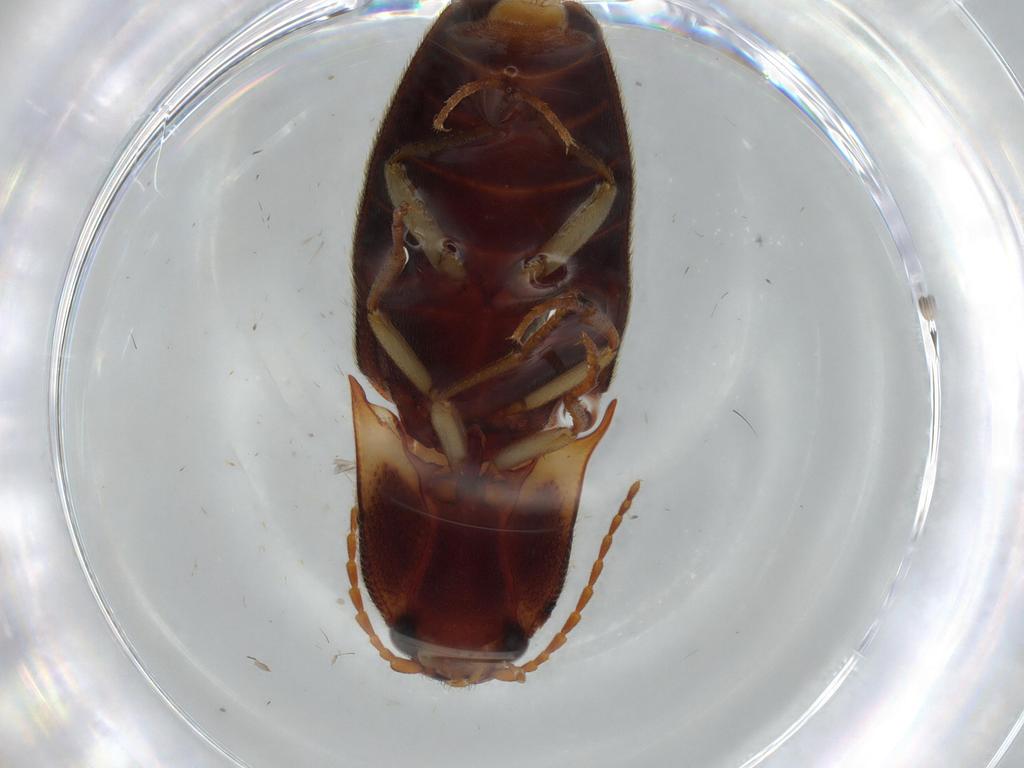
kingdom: Animalia
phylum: Arthropoda
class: Insecta
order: Coleoptera
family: Elateridae
